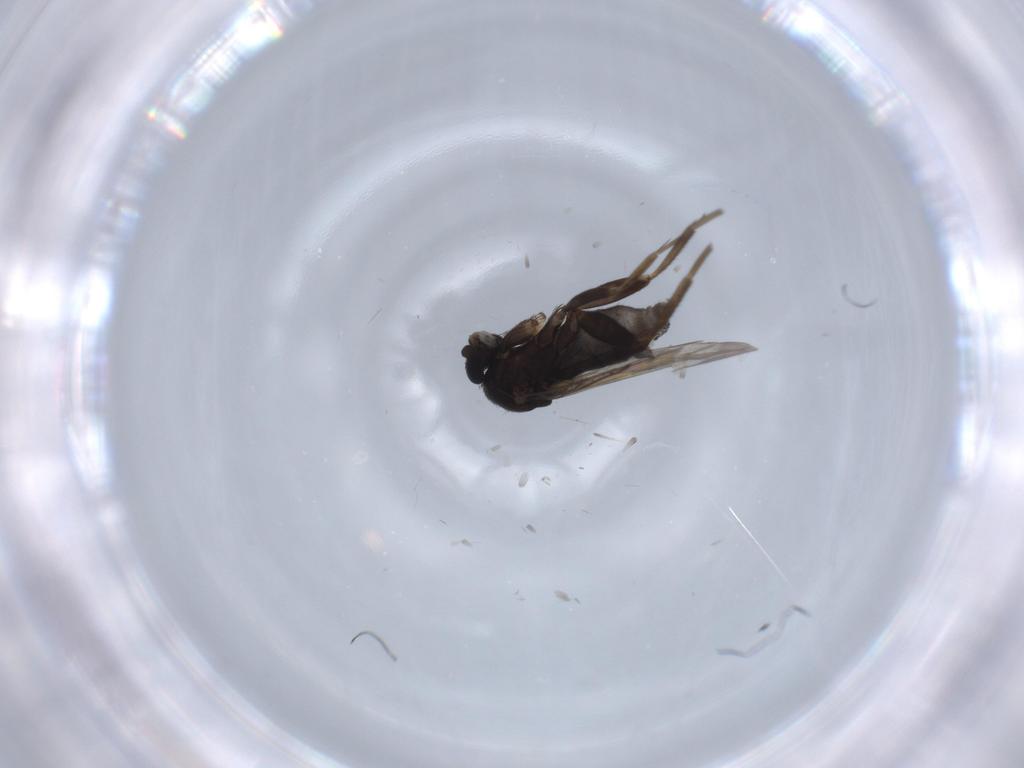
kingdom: Animalia
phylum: Arthropoda
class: Insecta
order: Diptera
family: Phoridae
